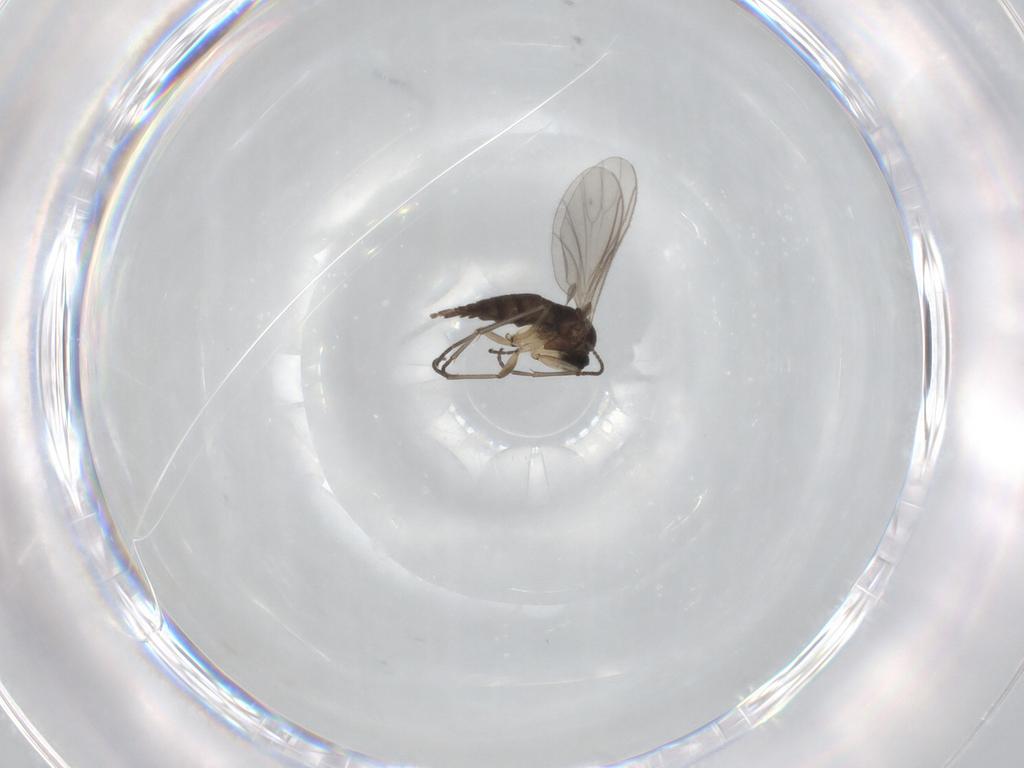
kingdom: Animalia
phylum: Arthropoda
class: Insecta
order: Diptera
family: Sciaridae
